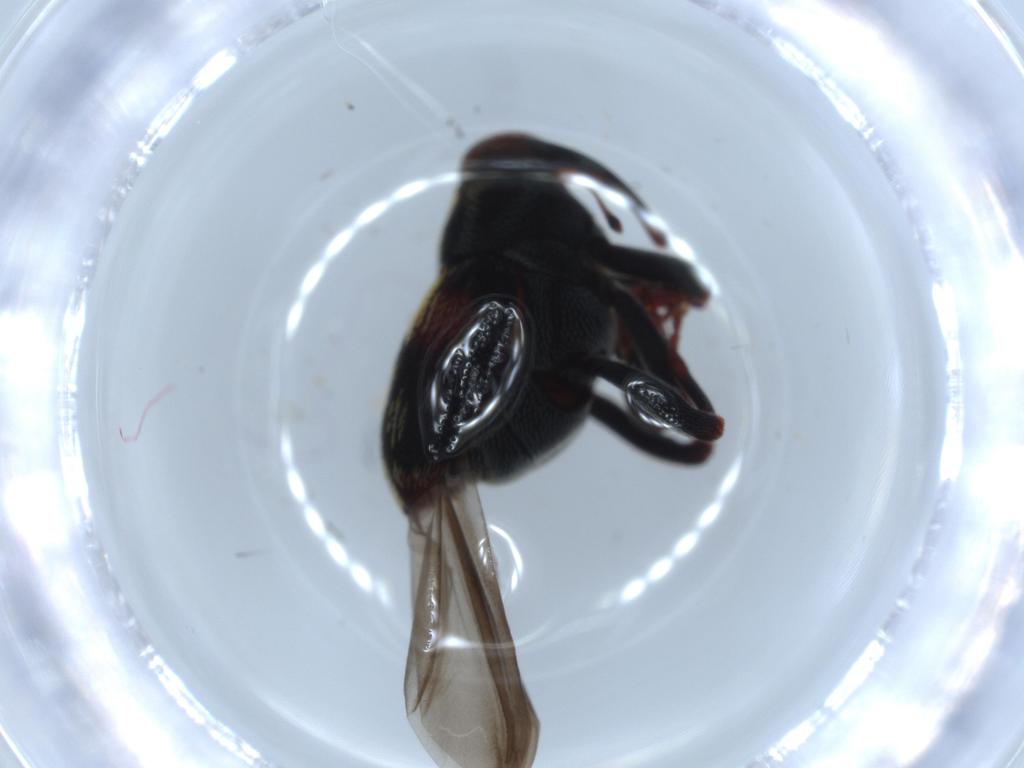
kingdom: Animalia
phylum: Arthropoda
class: Insecta
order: Coleoptera
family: Curculionidae
